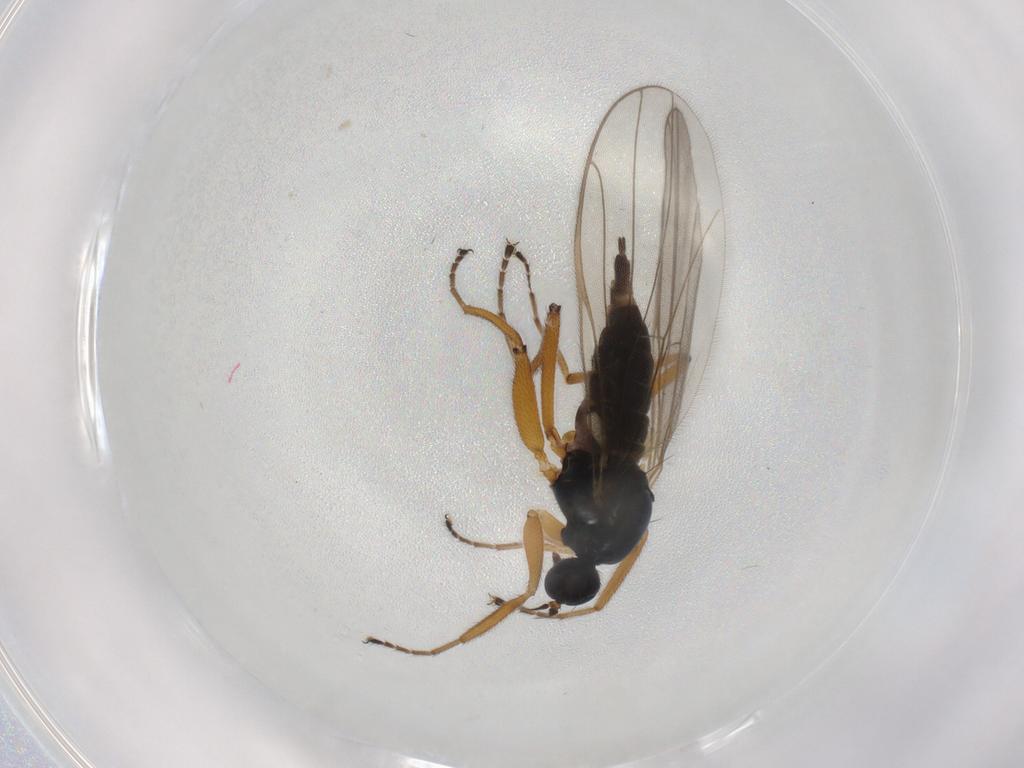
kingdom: Animalia
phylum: Arthropoda
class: Insecta
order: Diptera
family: Hybotidae
